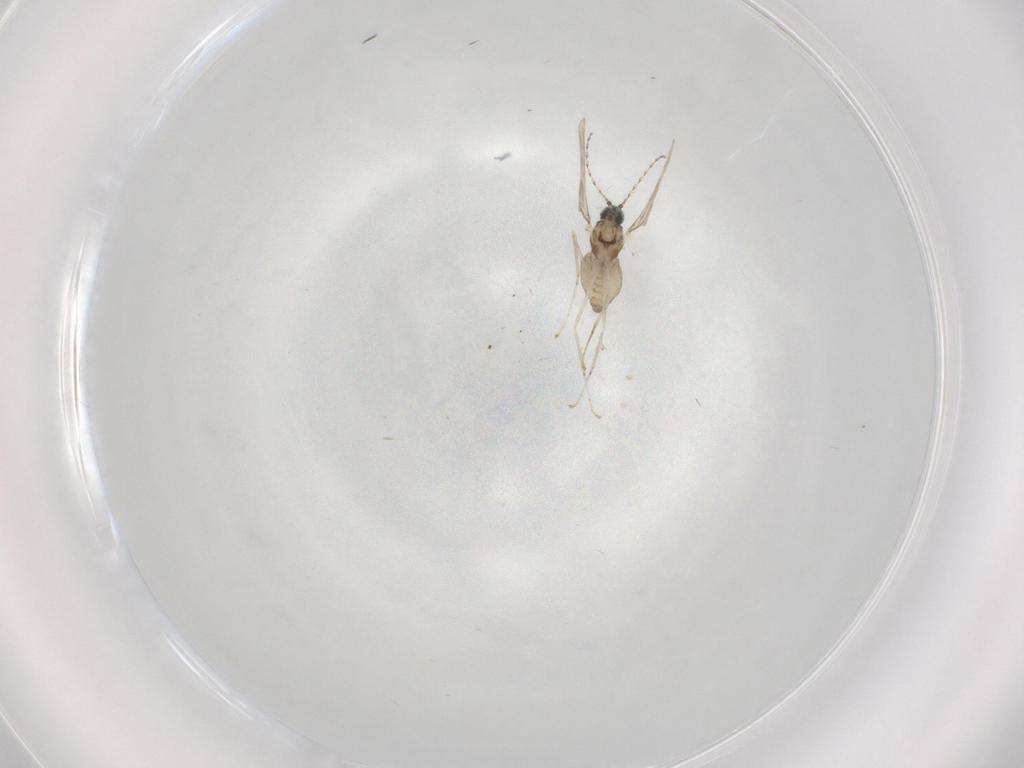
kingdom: Animalia
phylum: Arthropoda
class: Insecta
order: Diptera
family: Cecidomyiidae
